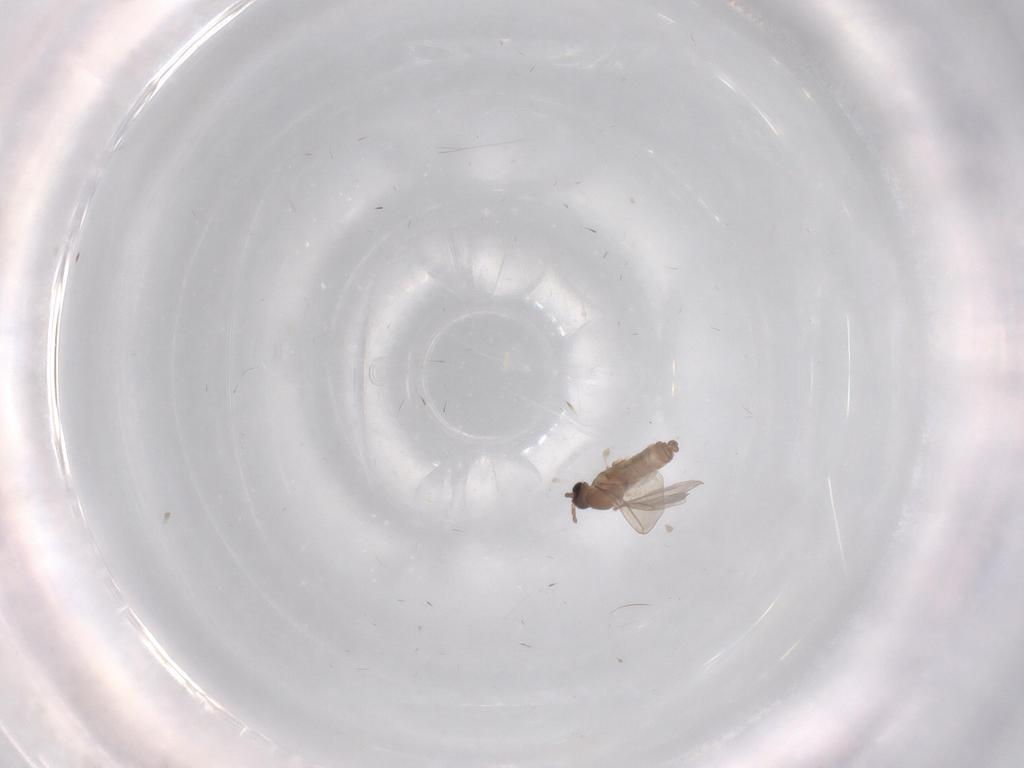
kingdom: Animalia
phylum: Arthropoda
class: Insecta
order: Diptera
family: Cecidomyiidae
